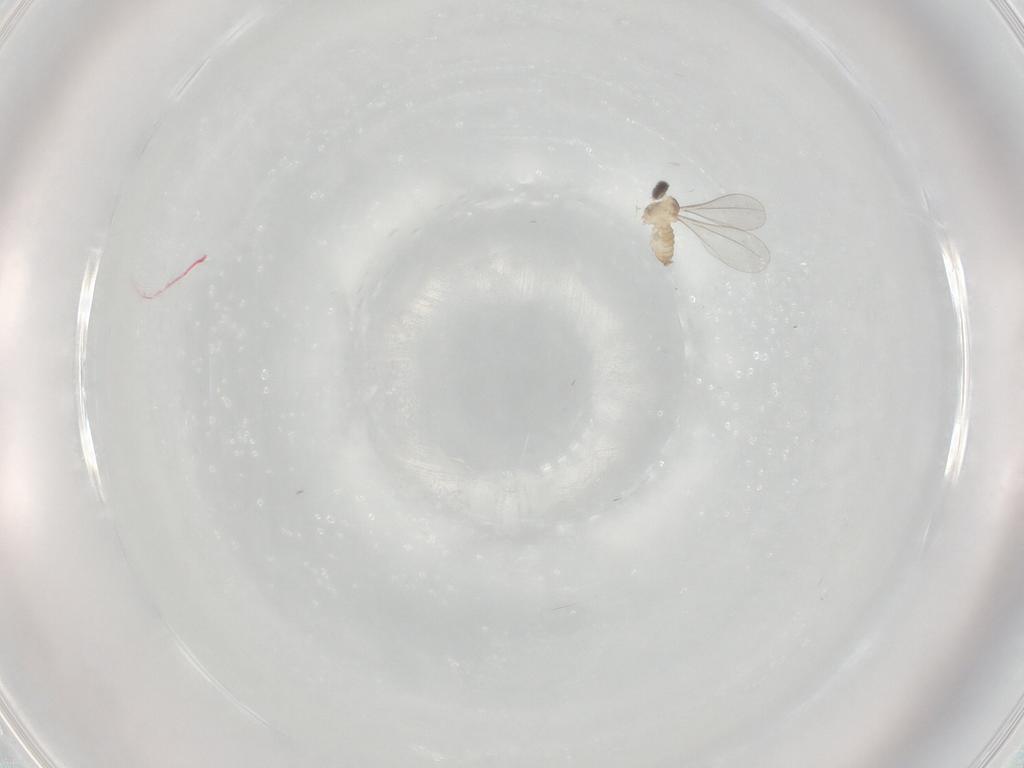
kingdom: Animalia
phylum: Arthropoda
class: Insecta
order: Diptera
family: Cecidomyiidae
